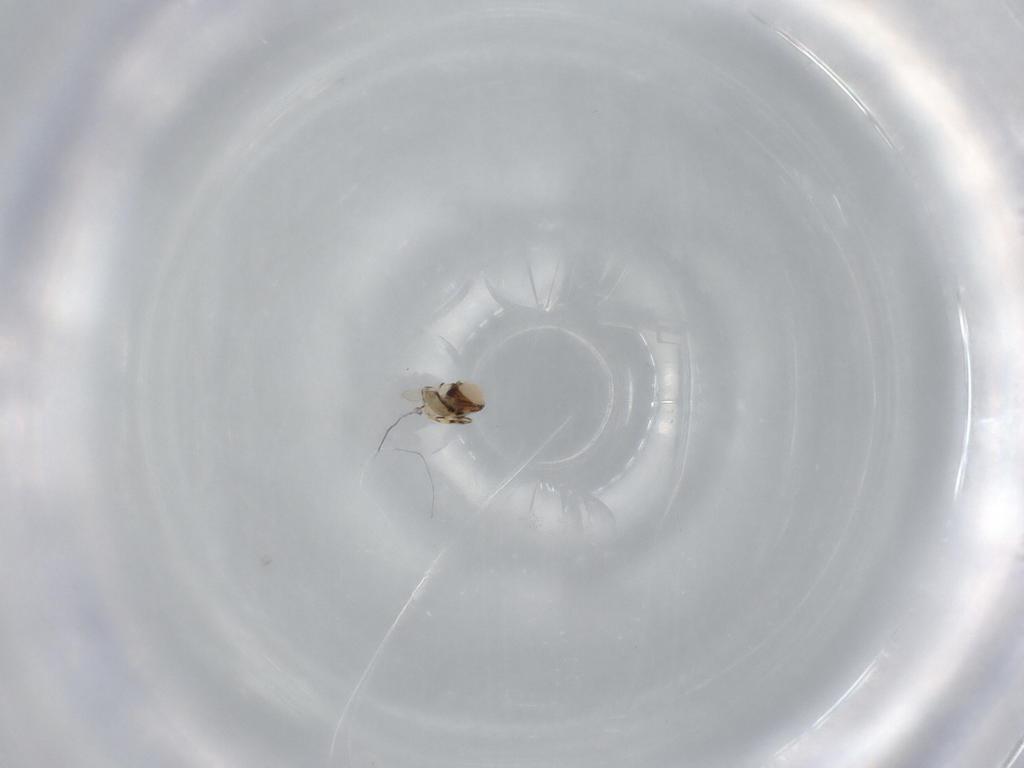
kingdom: Animalia
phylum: Arthropoda
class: Insecta
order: Hymenoptera
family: Scelionidae
